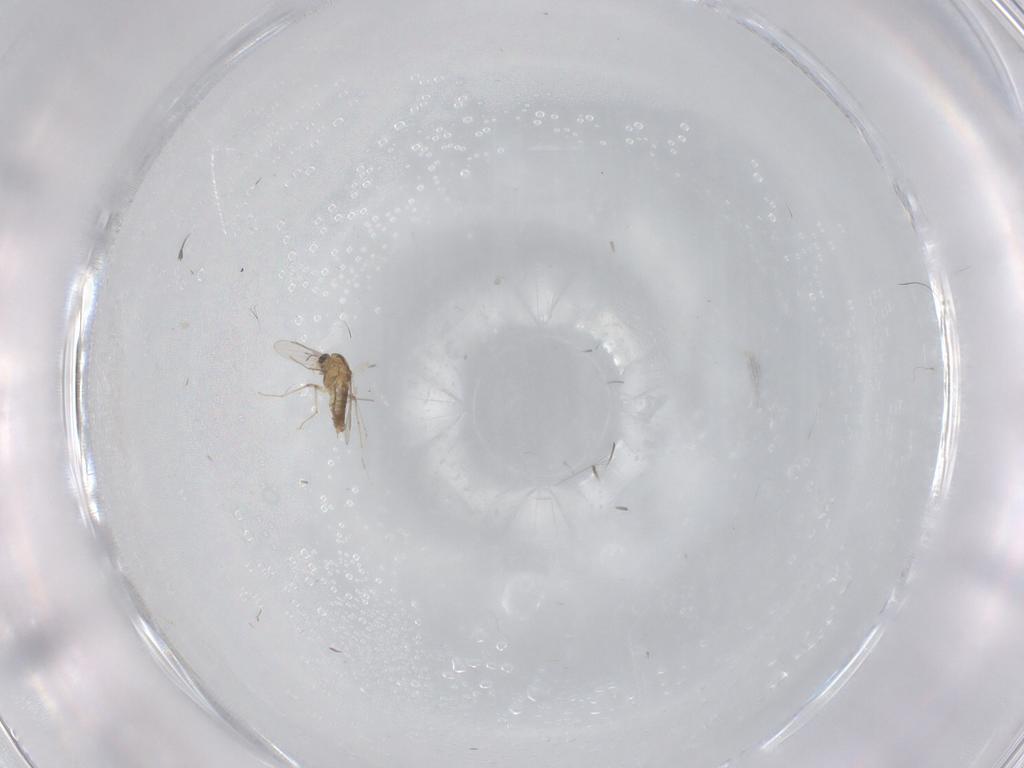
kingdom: Animalia
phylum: Arthropoda
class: Insecta
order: Diptera
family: Chironomidae
